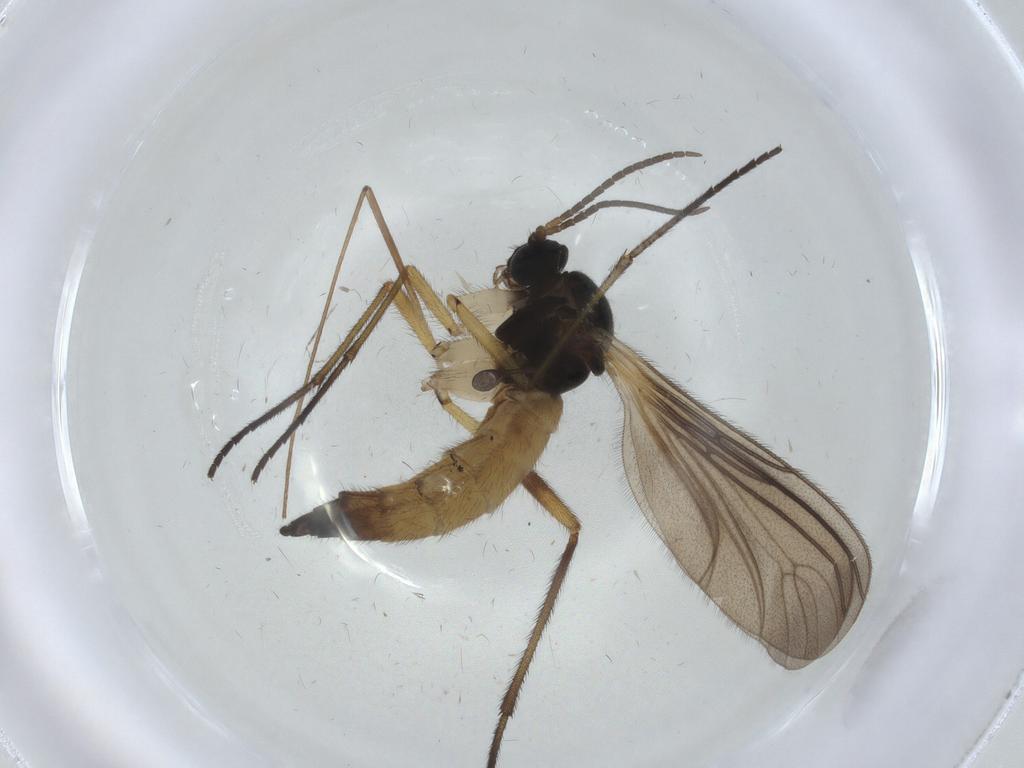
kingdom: Animalia
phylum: Arthropoda
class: Insecta
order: Diptera
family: Sciaridae
